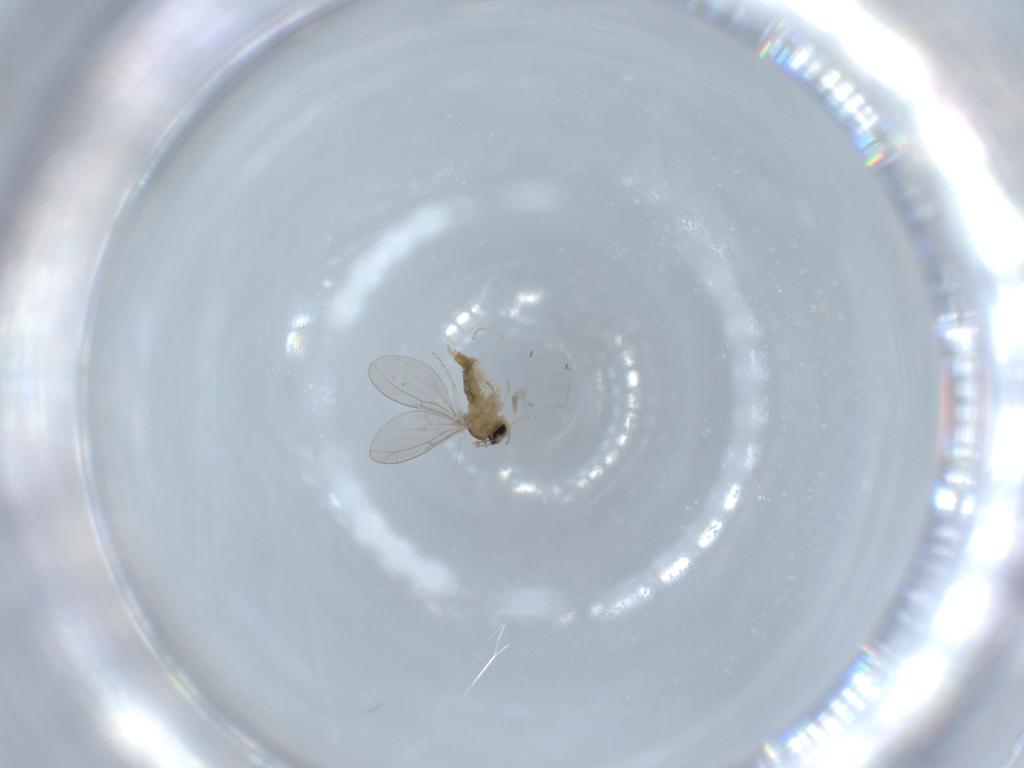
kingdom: Animalia
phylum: Arthropoda
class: Insecta
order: Diptera
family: Cecidomyiidae
